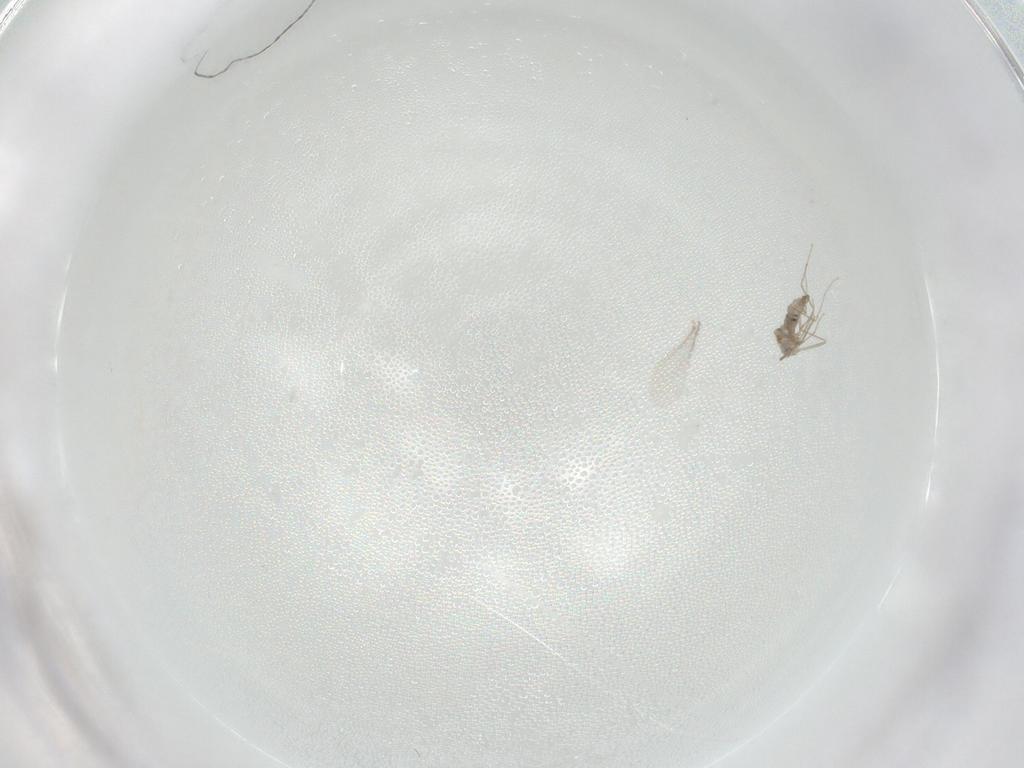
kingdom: Animalia
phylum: Arthropoda
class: Insecta
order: Diptera
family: Cecidomyiidae
